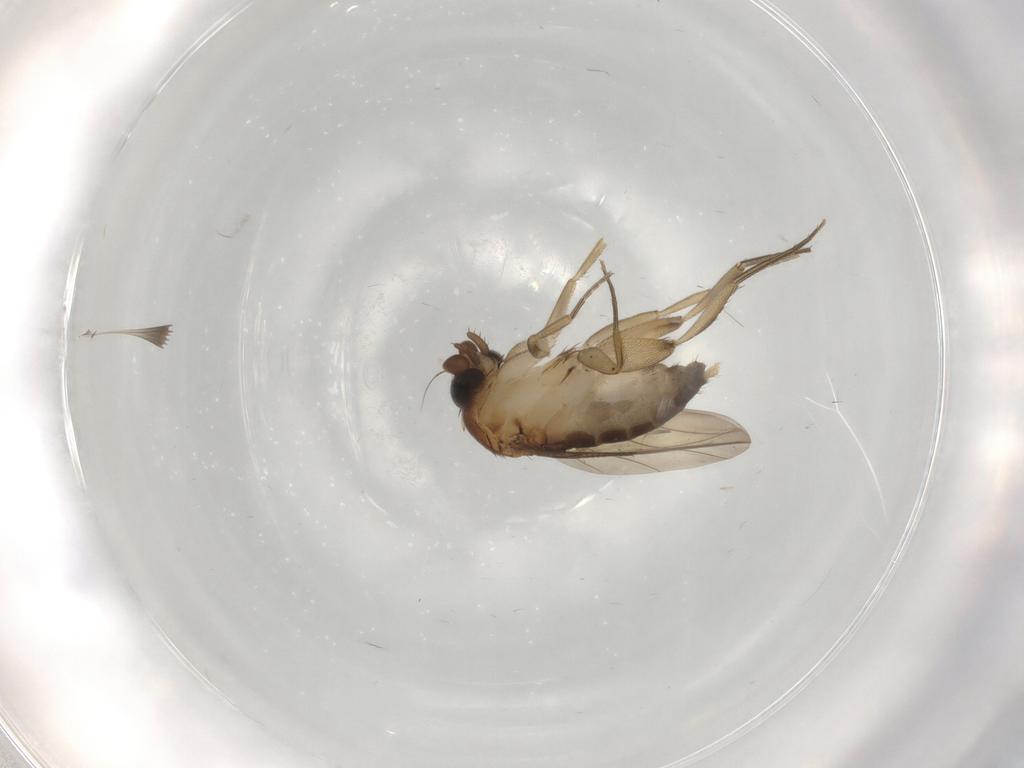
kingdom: Animalia
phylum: Arthropoda
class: Insecta
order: Diptera
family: Phoridae
